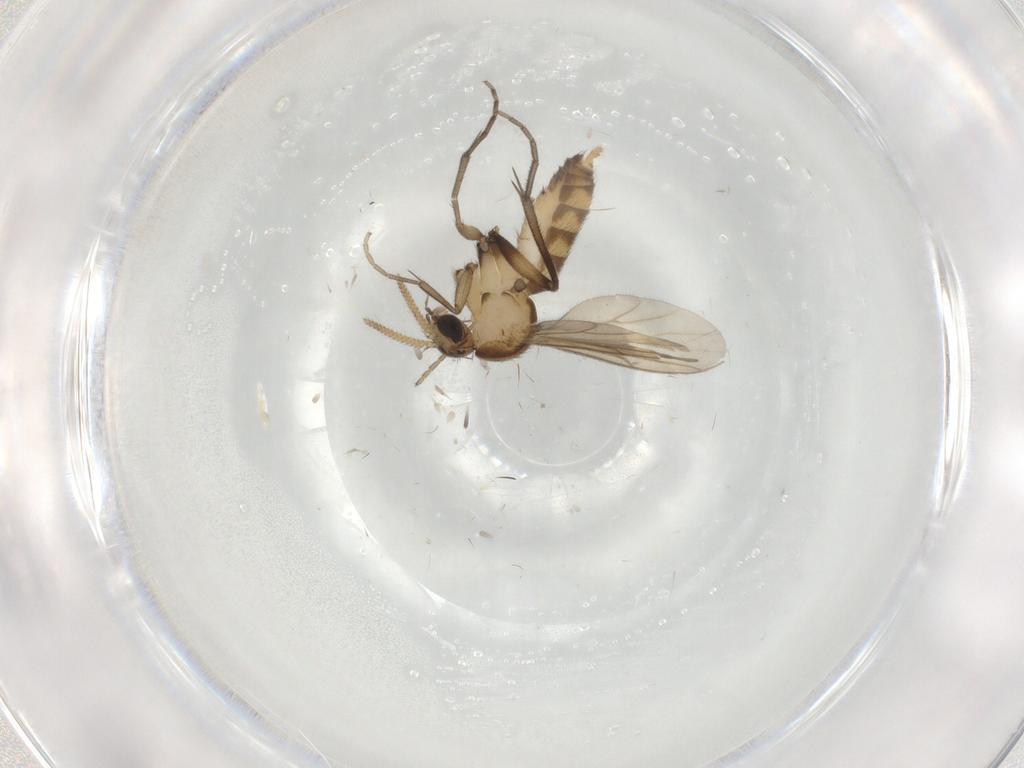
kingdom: Animalia
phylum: Arthropoda
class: Insecta
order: Diptera
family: Mycetophilidae
